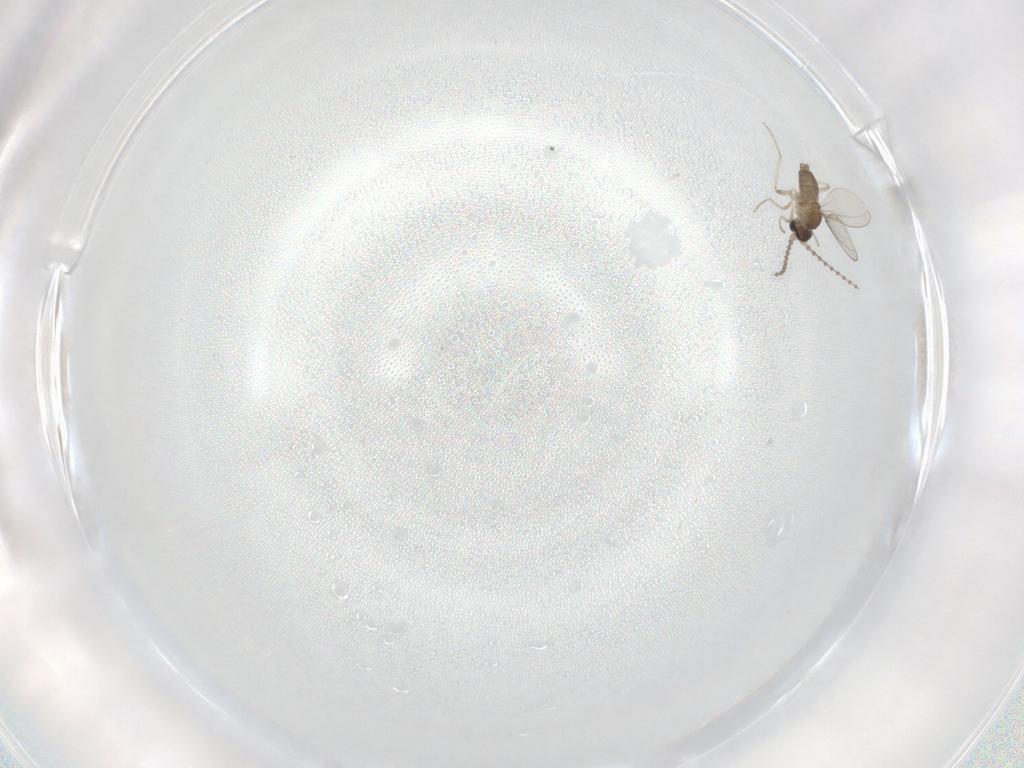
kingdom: Animalia
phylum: Arthropoda
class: Insecta
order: Diptera
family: Cecidomyiidae
